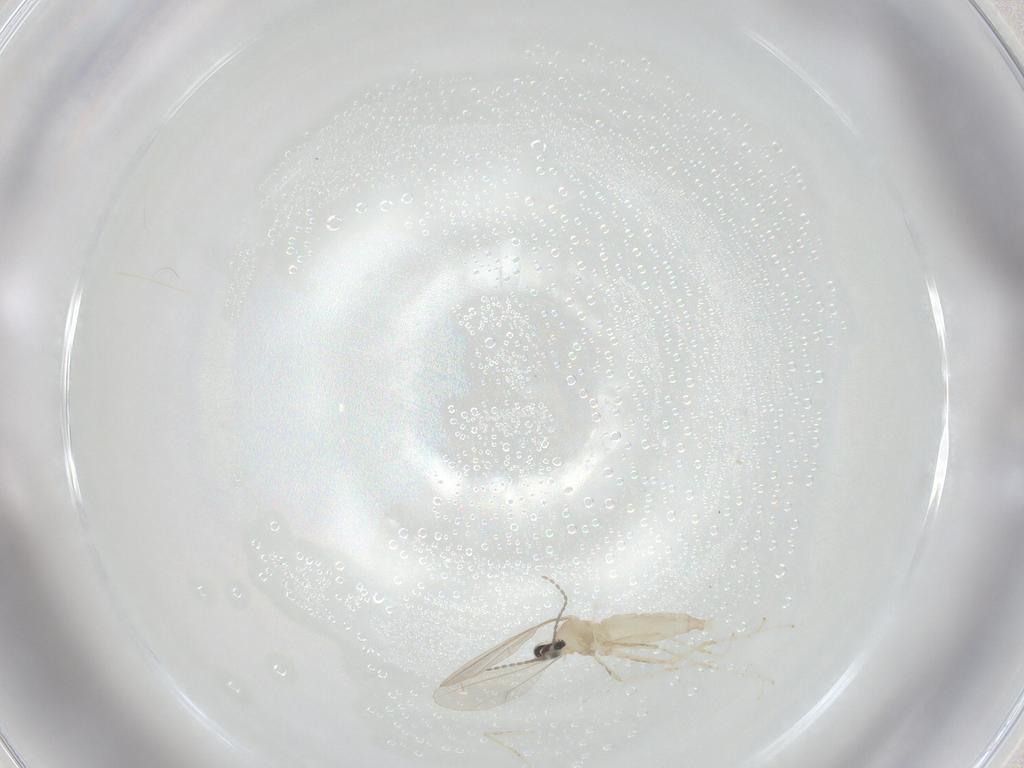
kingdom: Animalia
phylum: Arthropoda
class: Insecta
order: Diptera
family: Cecidomyiidae
